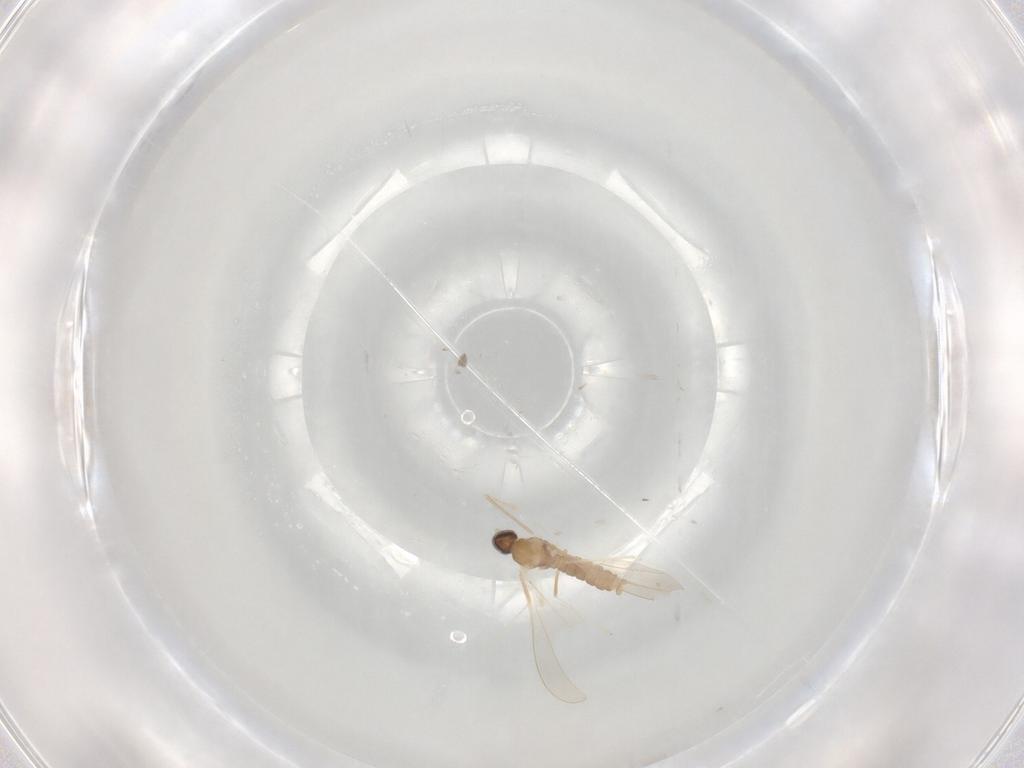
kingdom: Animalia
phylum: Arthropoda
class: Insecta
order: Diptera
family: Cecidomyiidae
